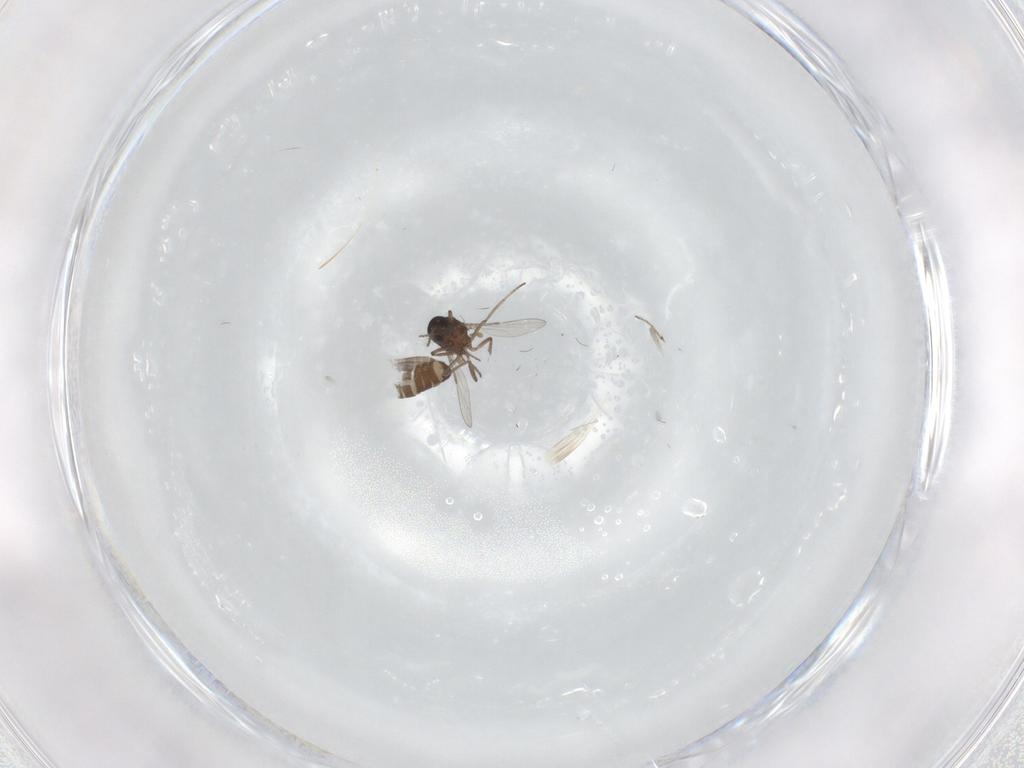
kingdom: Animalia
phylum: Arthropoda
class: Insecta
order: Diptera
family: Ceratopogonidae
